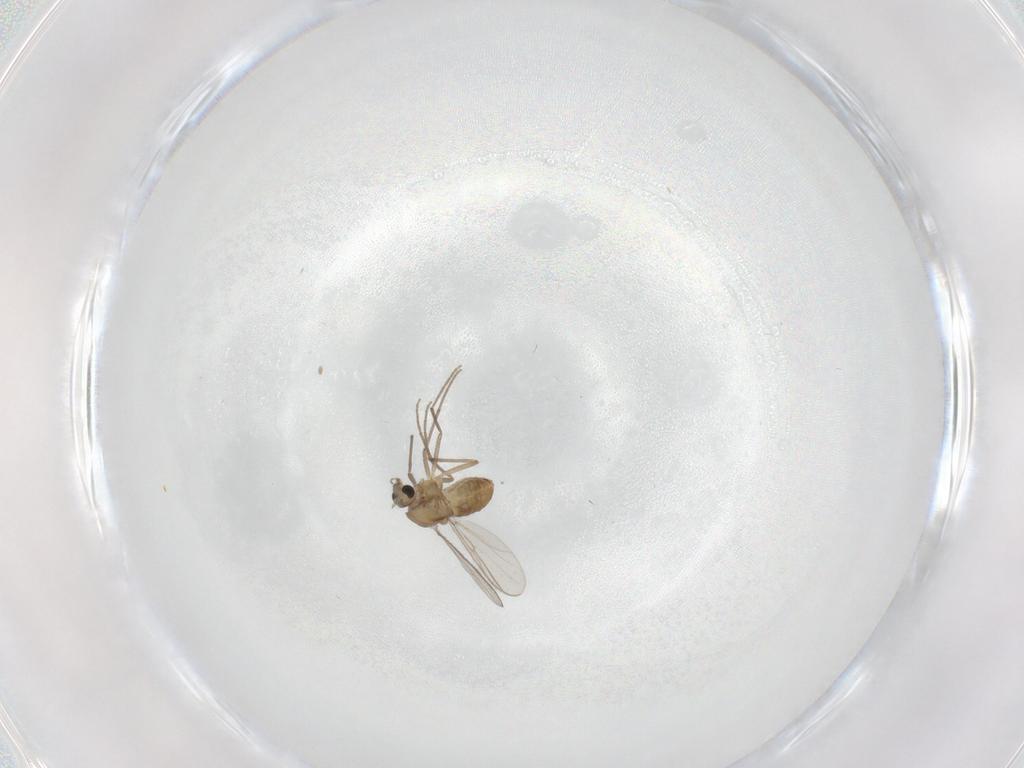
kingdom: Animalia
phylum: Arthropoda
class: Insecta
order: Diptera
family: Chironomidae
